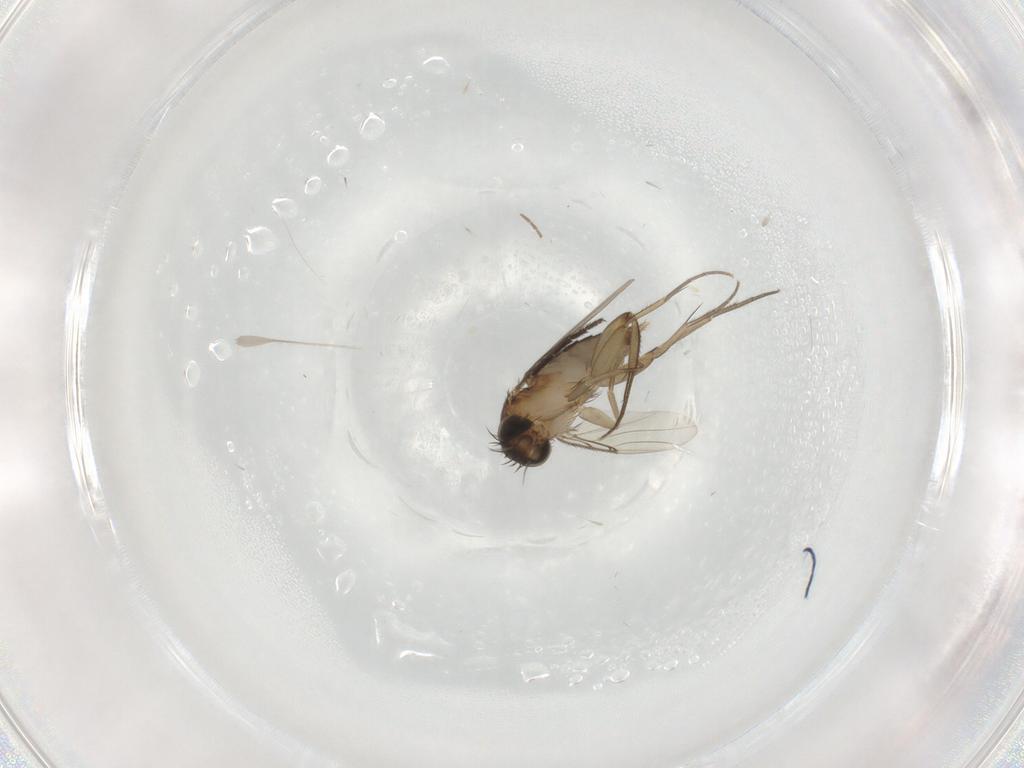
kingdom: Animalia
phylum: Arthropoda
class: Insecta
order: Diptera
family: Phoridae
